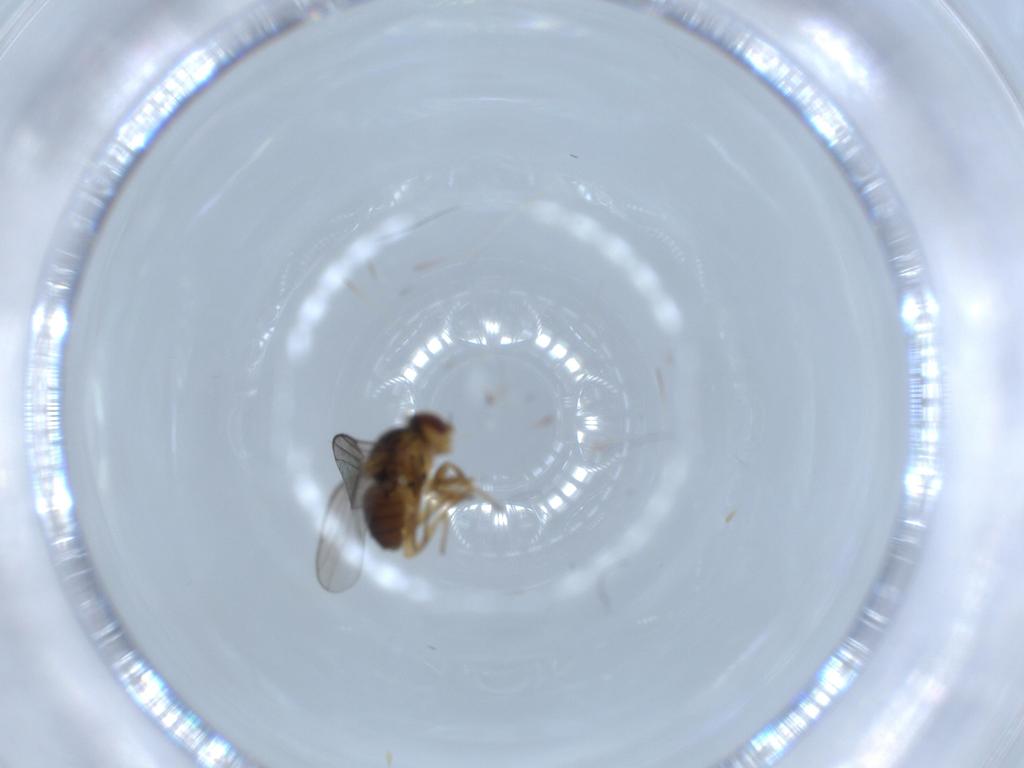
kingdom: Animalia
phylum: Arthropoda
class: Insecta
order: Diptera
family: Chloropidae
